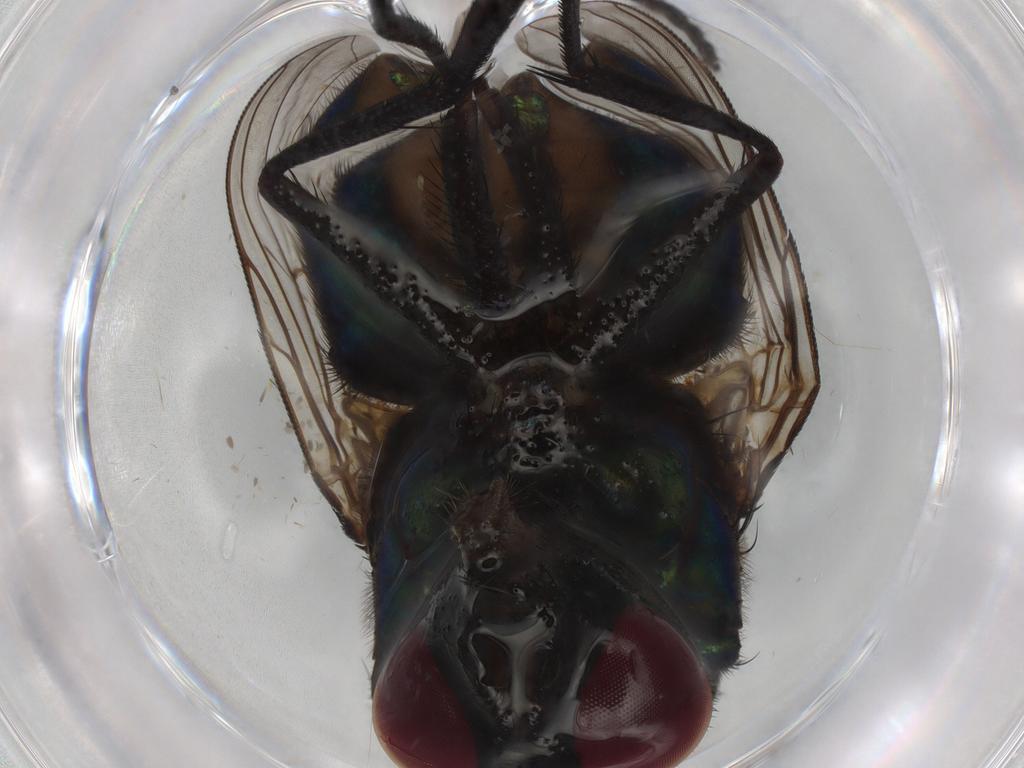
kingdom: Animalia
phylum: Arthropoda
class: Insecta
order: Diptera
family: Muscidae
